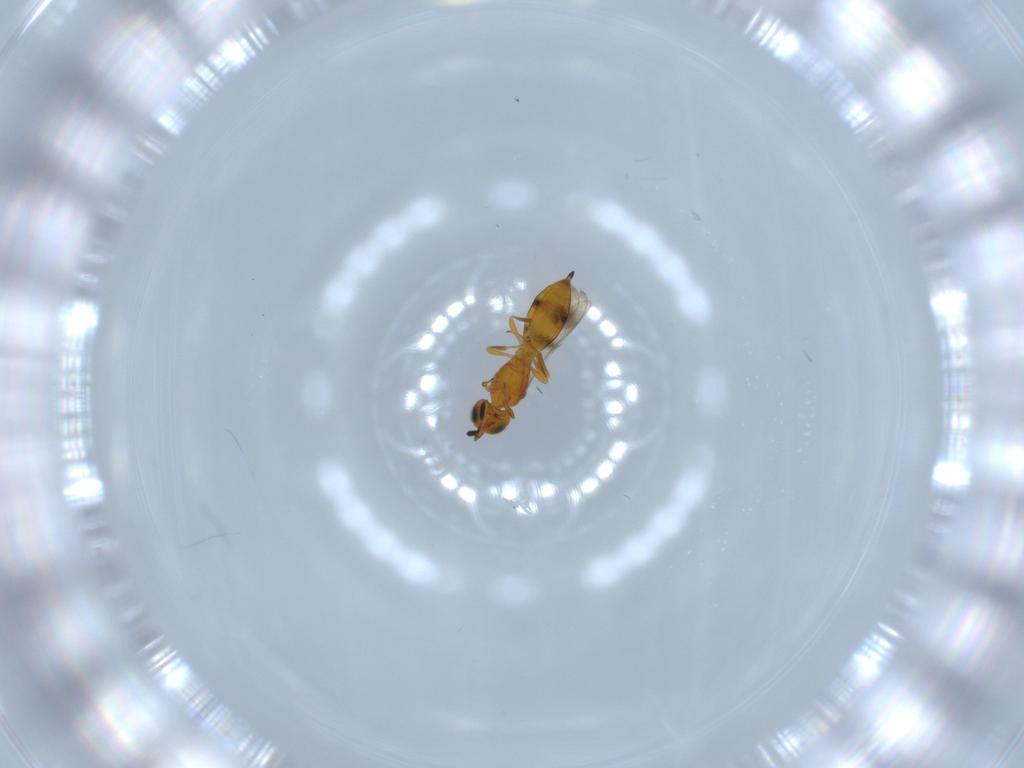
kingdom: Animalia
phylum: Arthropoda
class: Insecta
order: Hymenoptera
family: Scelionidae
